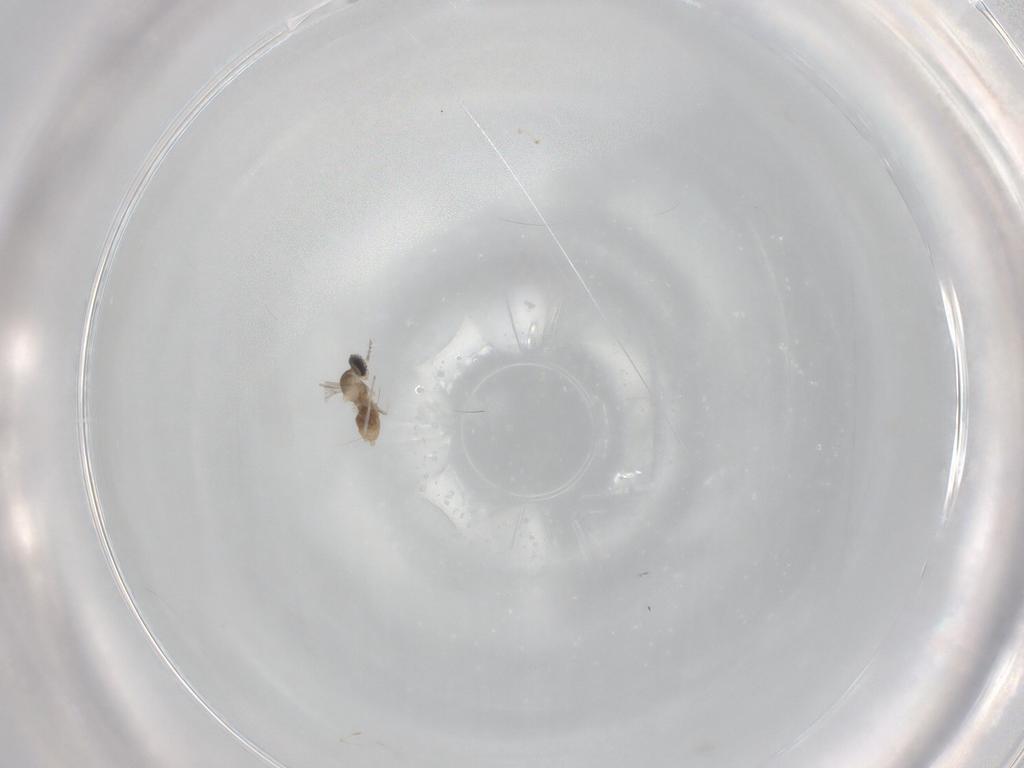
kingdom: Animalia
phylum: Arthropoda
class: Insecta
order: Diptera
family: Cecidomyiidae
